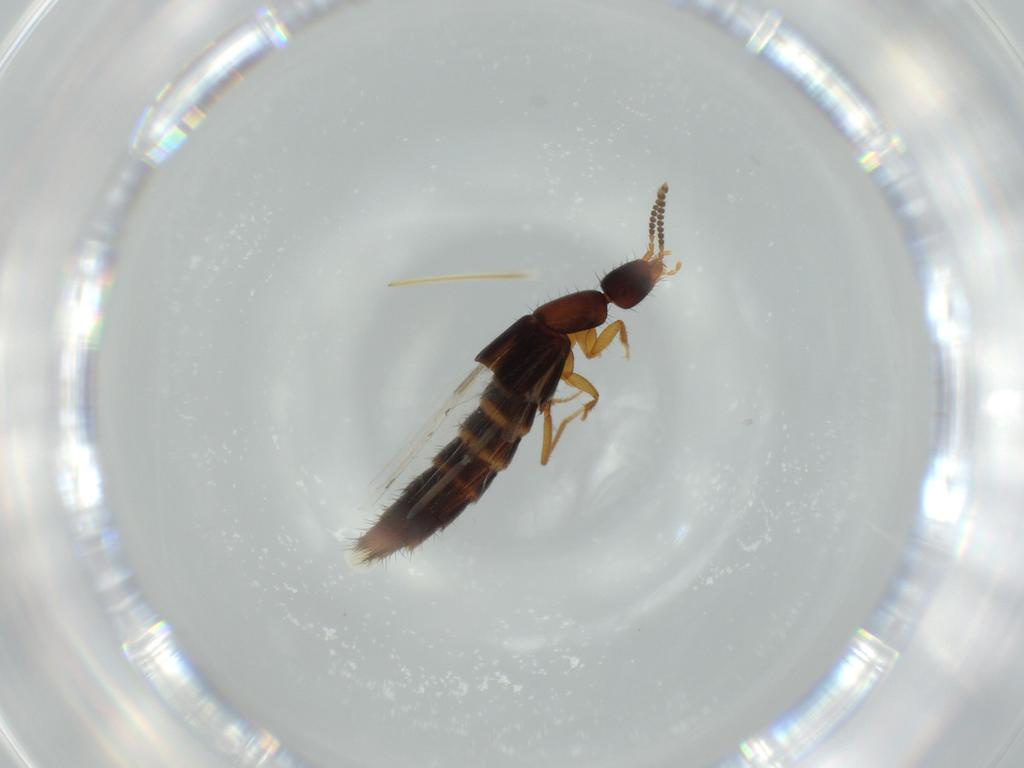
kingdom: Animalia
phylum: Arthropoda
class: Insecta
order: Coleoptera
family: Staphylinidae
